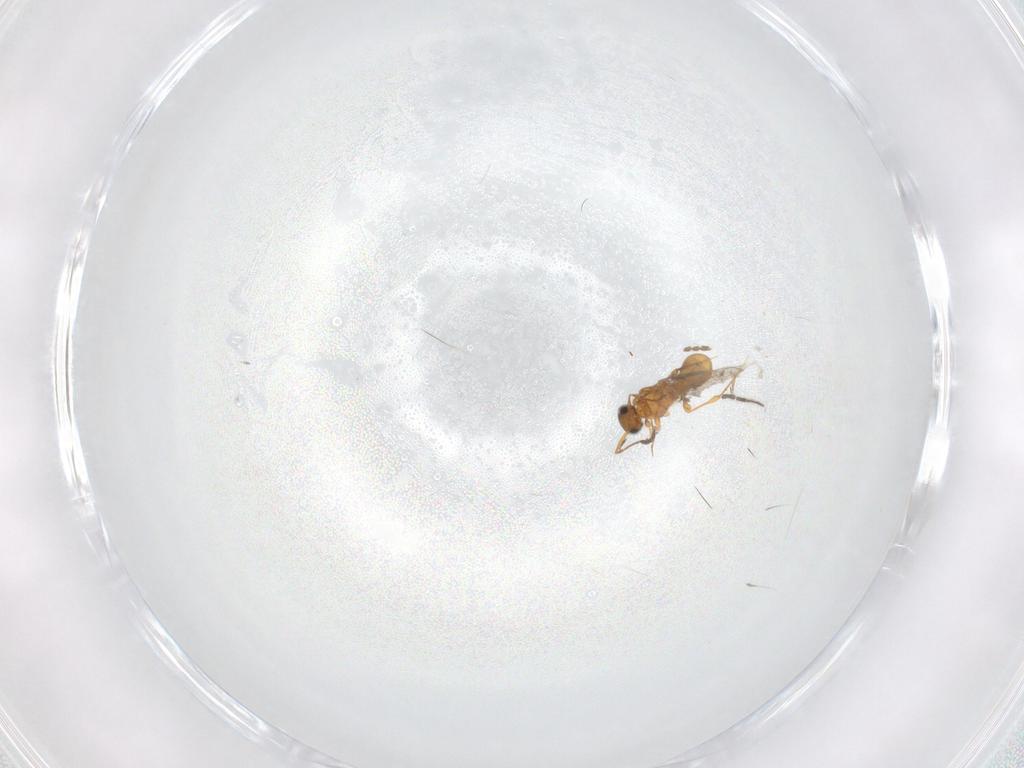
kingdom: Animalia
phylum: Arthropoda
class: Insecta
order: Hymenoptera
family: Platygastridae
